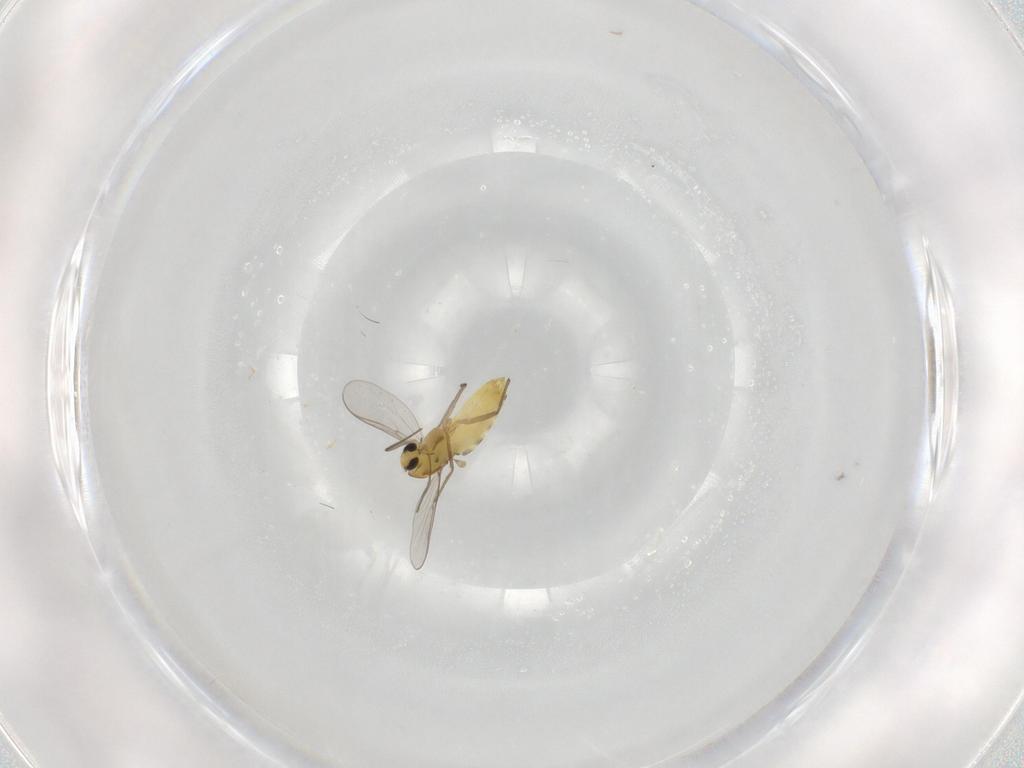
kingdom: Animalia
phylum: Arthropoda
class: Insecta
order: Diptera
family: Chironomidae
